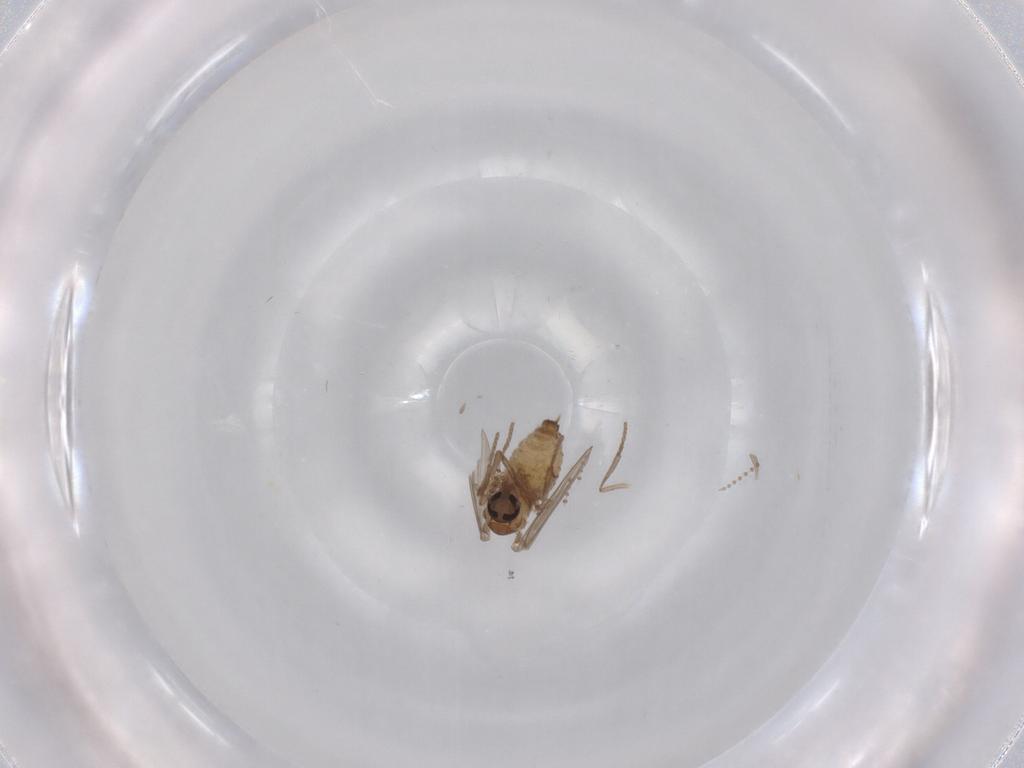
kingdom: Animalia
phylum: Arthropoda
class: Insecta
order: Diptera
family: Psychodidae
